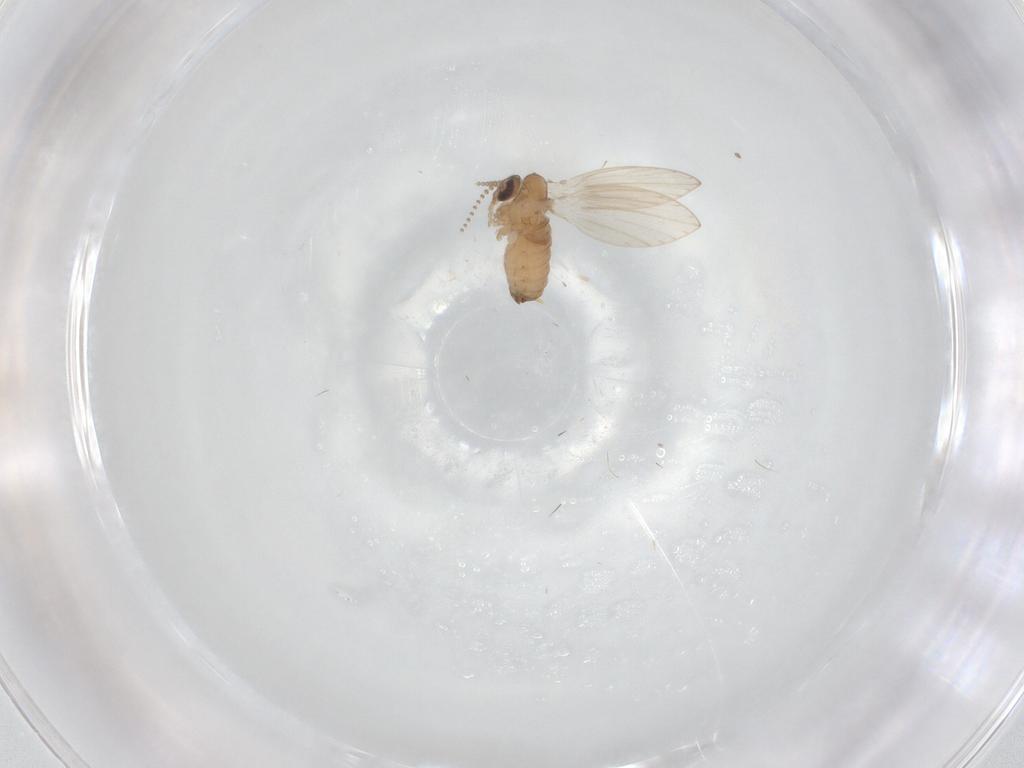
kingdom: Animalia
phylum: Arthropoda
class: Insecta
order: Diptera
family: Psychodidae
